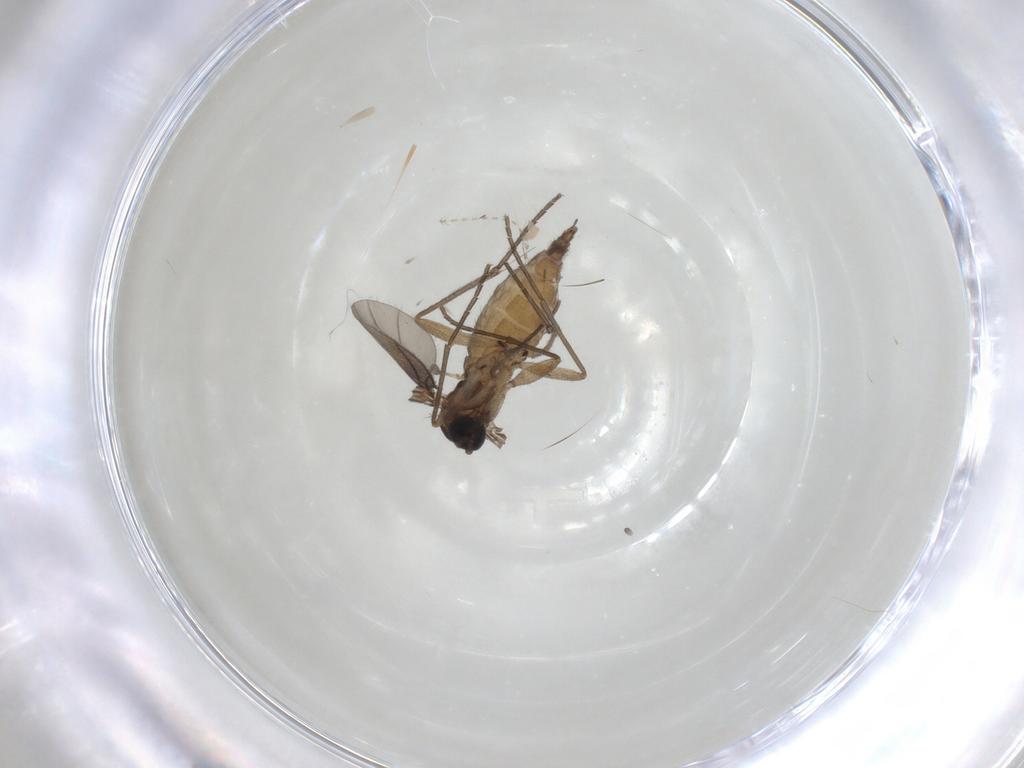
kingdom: Animalia
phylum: Arthropoda
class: Insecta
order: Diptera
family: Sciaridae
